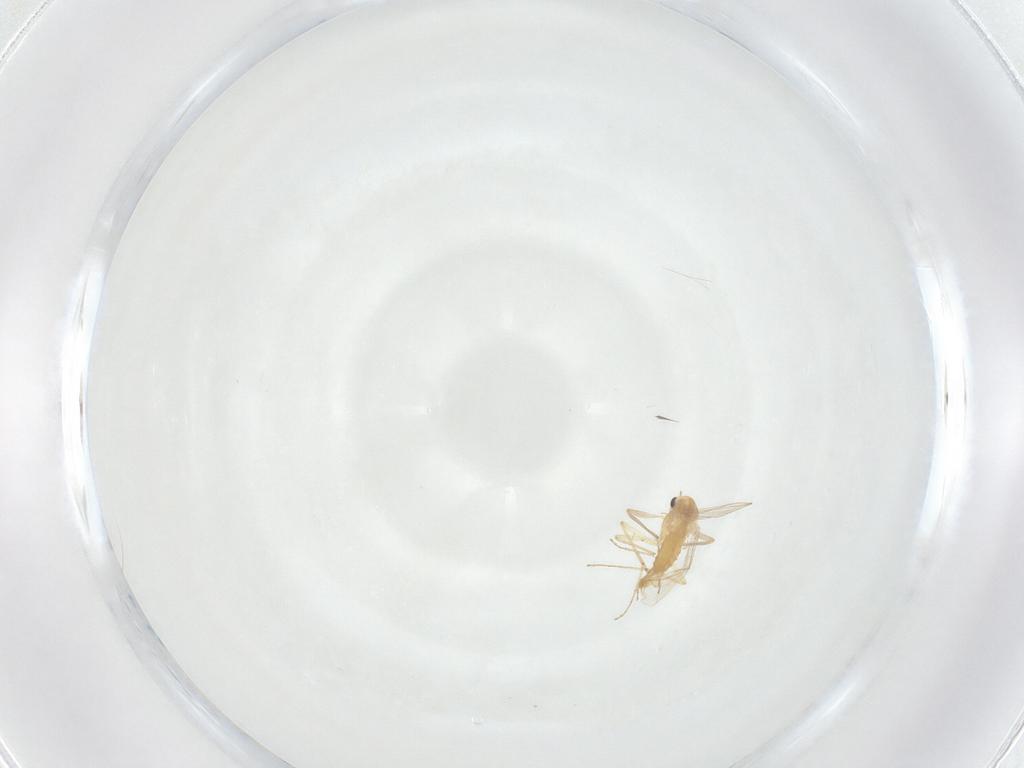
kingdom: Animalia
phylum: Arthropoda
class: Insecta
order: Diptera
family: Chironomidae
